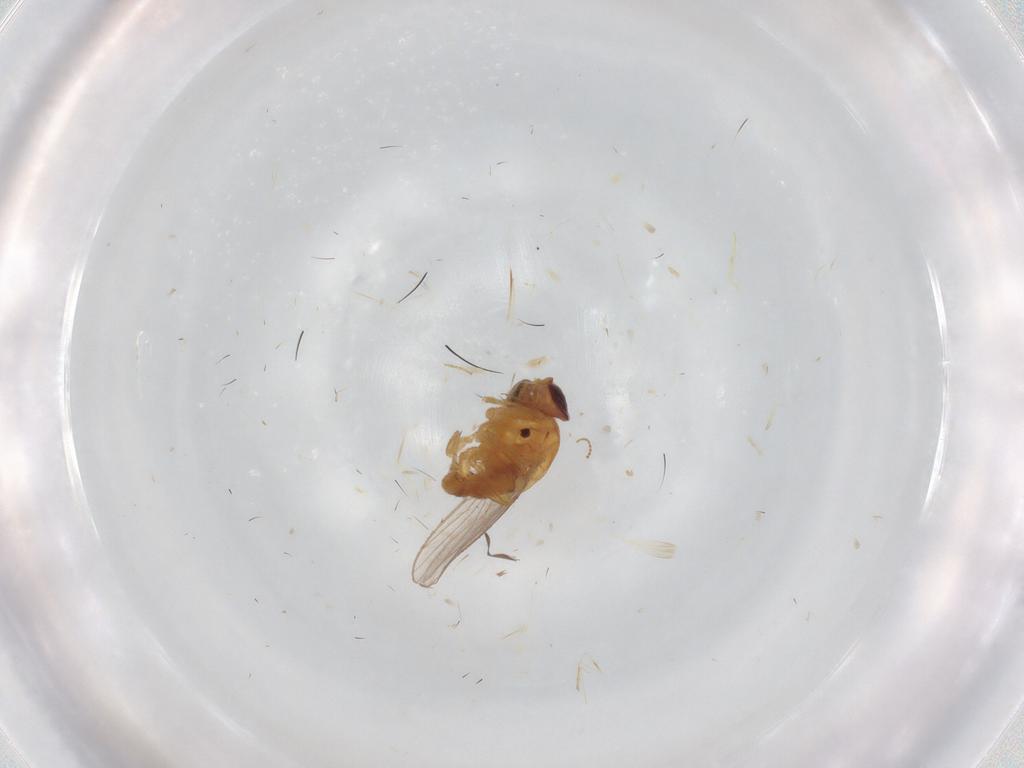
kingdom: Animalia
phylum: Arthropoda
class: Insecta
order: Diptera
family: Chloropidae
